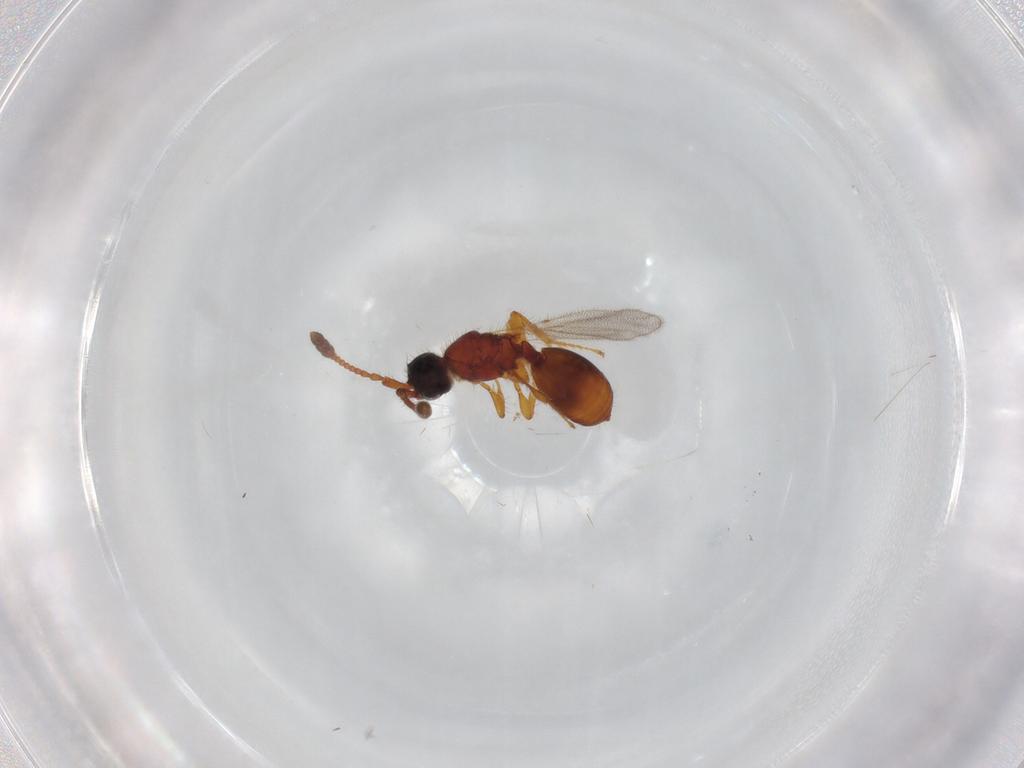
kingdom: Animalia
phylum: Arthropoda
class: Insecta
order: Hymenoptera
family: Diapriidae
